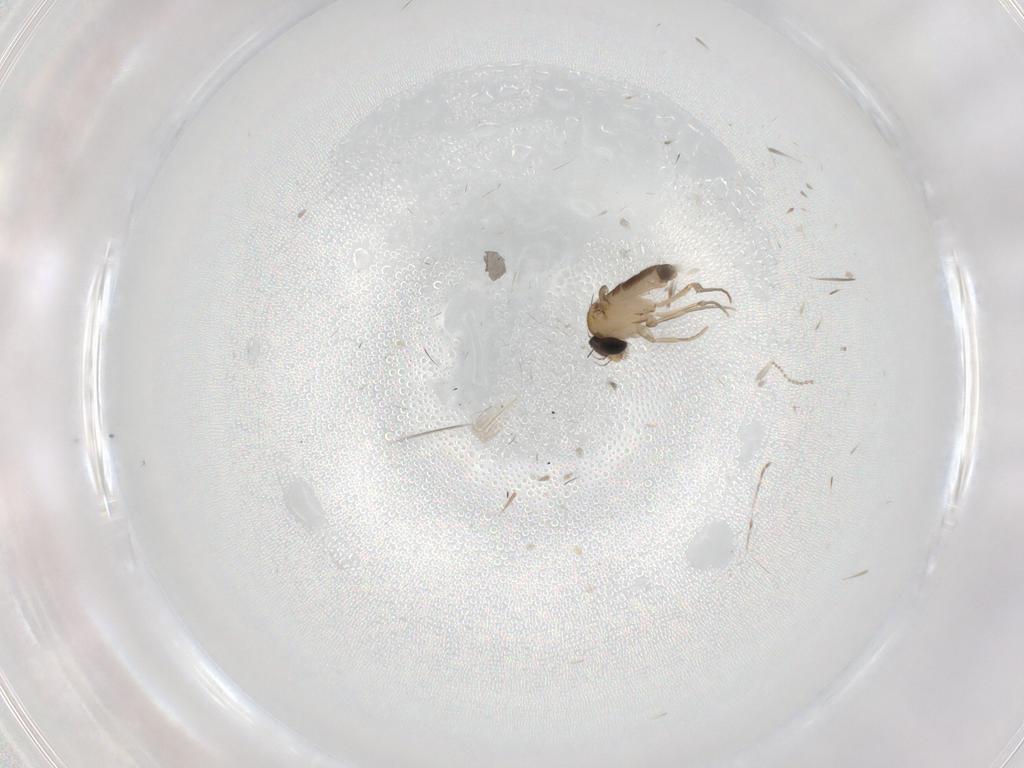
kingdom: Animalia
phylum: Arthropoda
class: Insecta
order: Diptera
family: Phoridae
